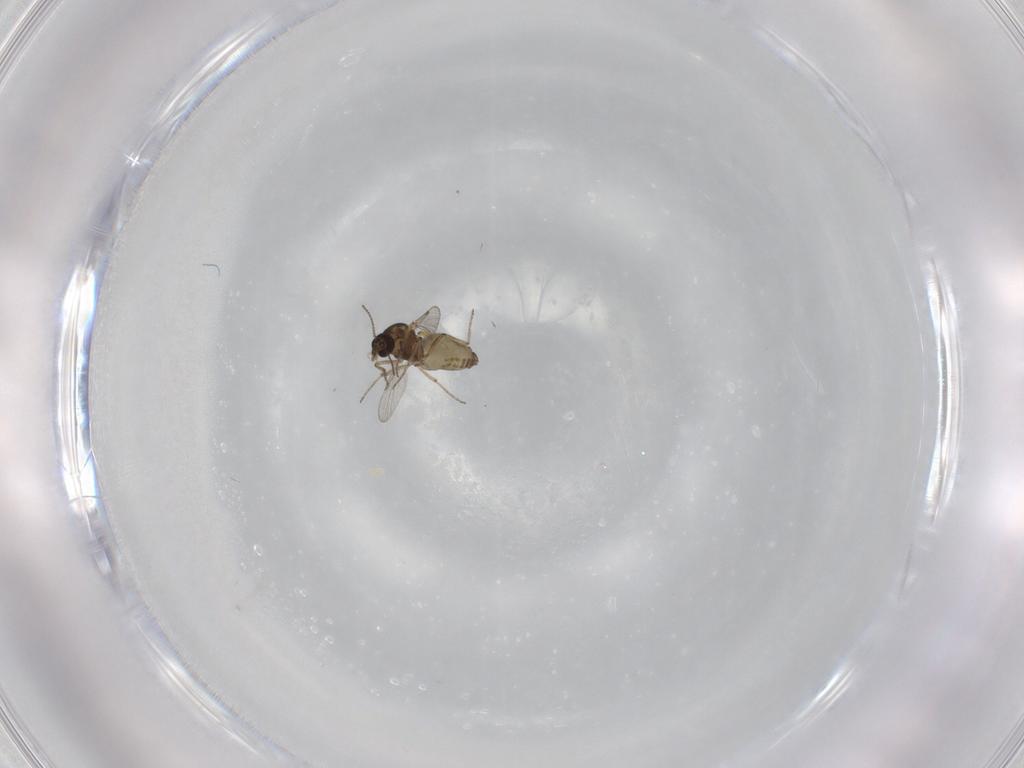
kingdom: Animalia
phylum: Arthropoda
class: Insecta
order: Diptera
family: Ceratopogonidae
